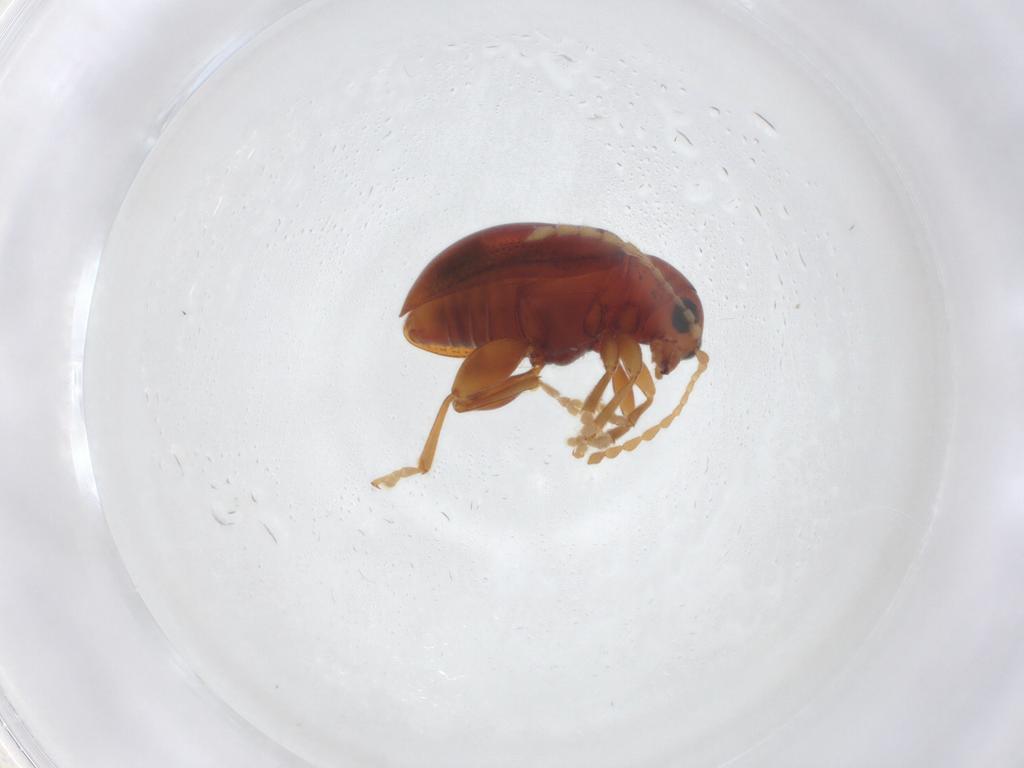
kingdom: Animalia
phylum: Arthropoda
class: Insecta
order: Coleoptera
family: Chrysomelidae
